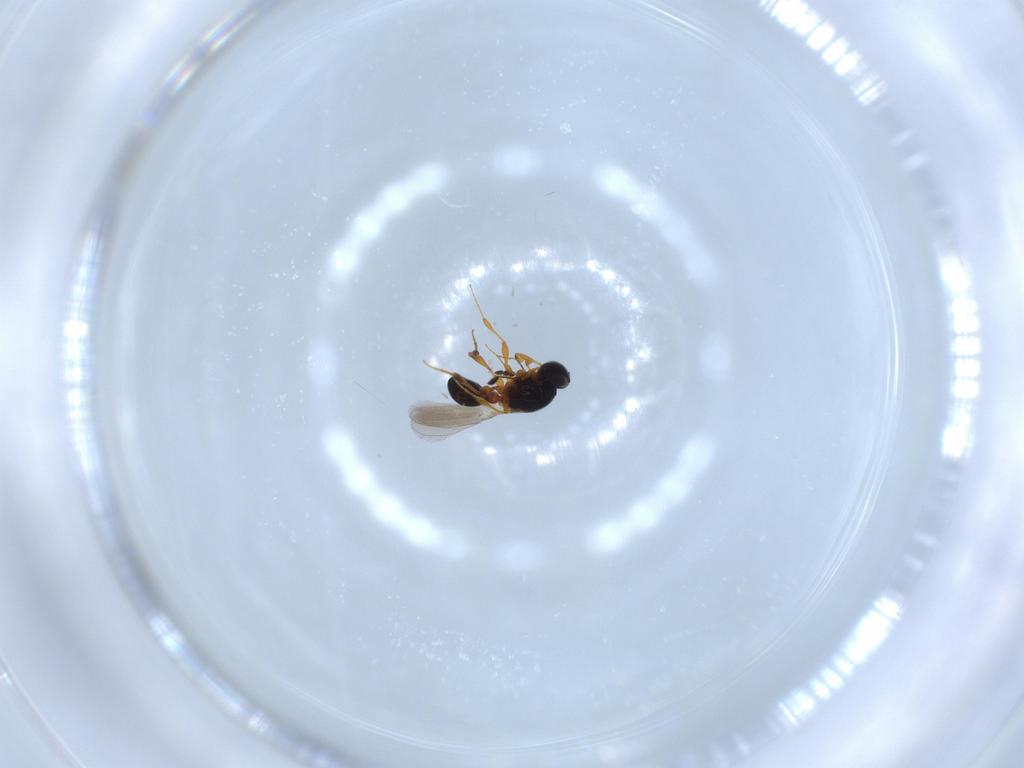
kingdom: Animalia
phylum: Arthropoda
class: Insecta
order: Hymenoptera
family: Platygastridae
